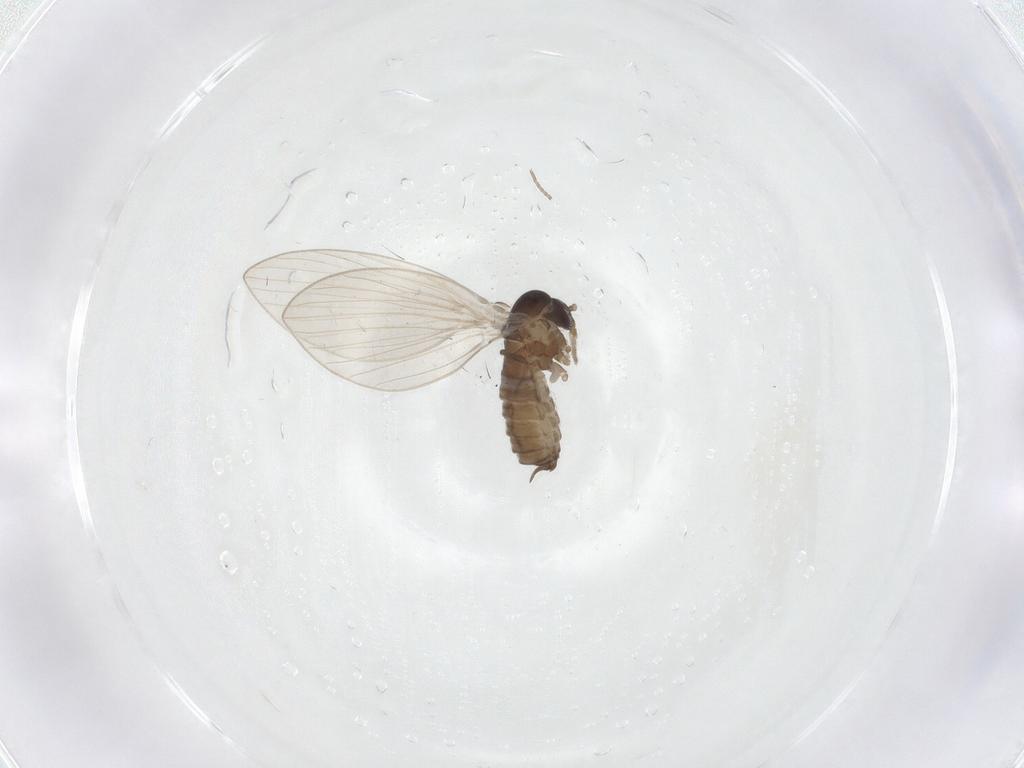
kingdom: Animalia
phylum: Arthropoda
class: Insecta
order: Diptera
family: Psychodidae
